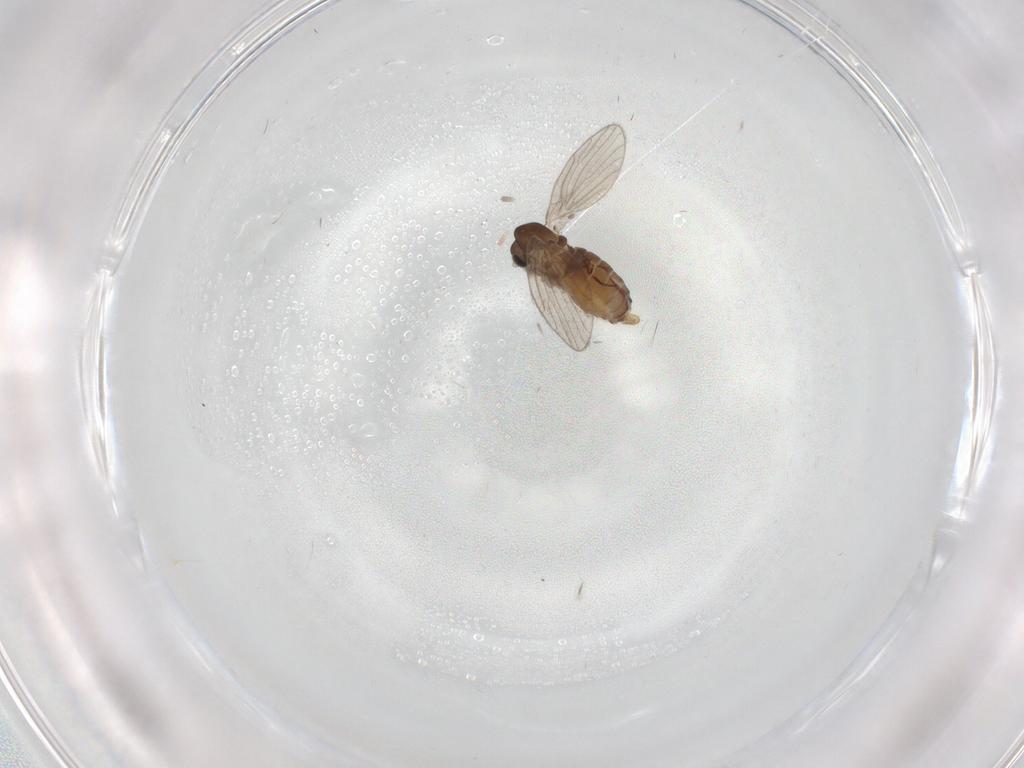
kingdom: Animalia
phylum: Arthropoda
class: Insecta
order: Diptera
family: Psychodidae
